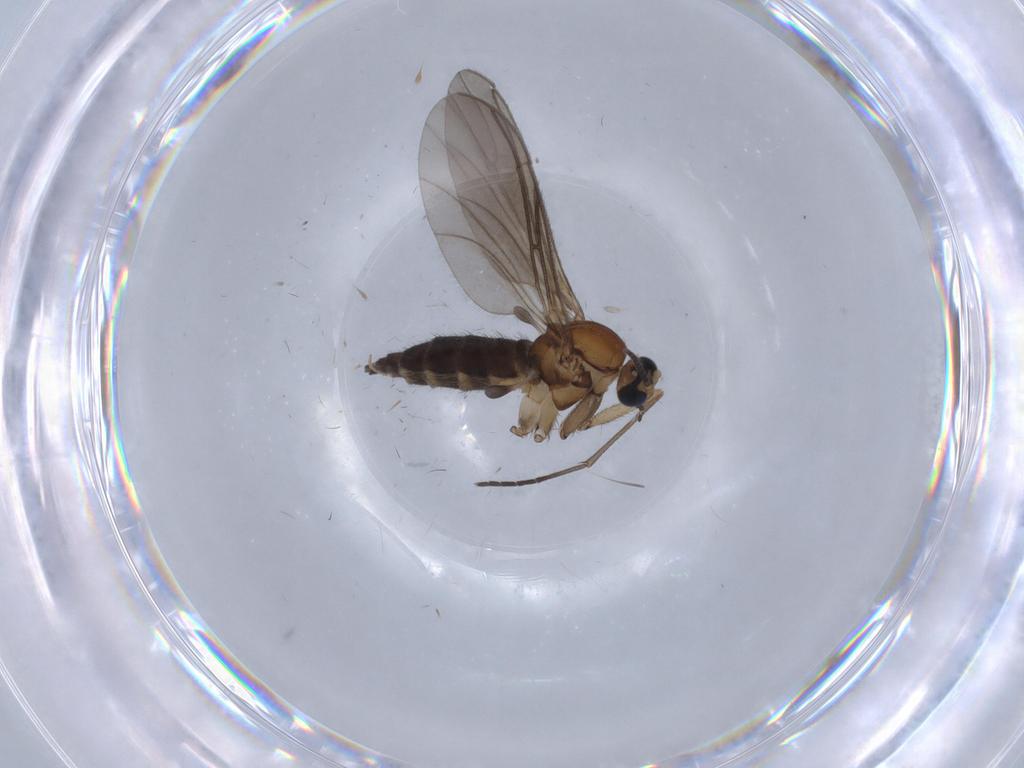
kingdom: Animalia
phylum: Arthropoda
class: Insecta
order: Diptera
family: Sciaridae
